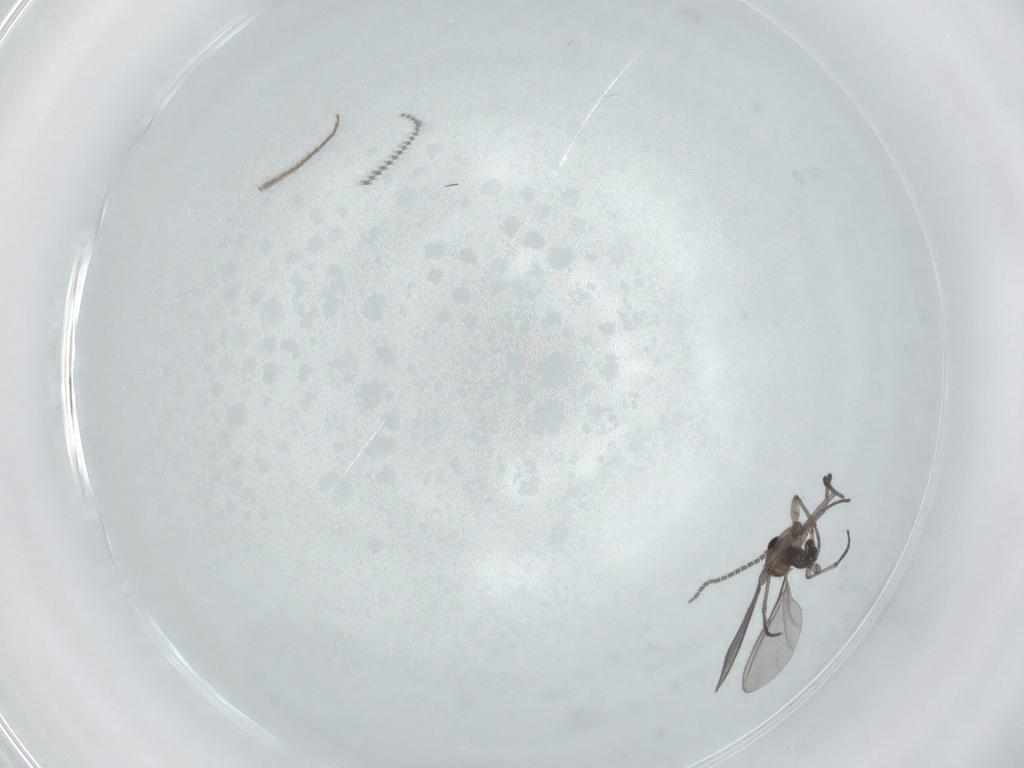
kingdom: Animalia
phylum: Arthropoda
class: Insecta
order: Diptera
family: Sciaridae
